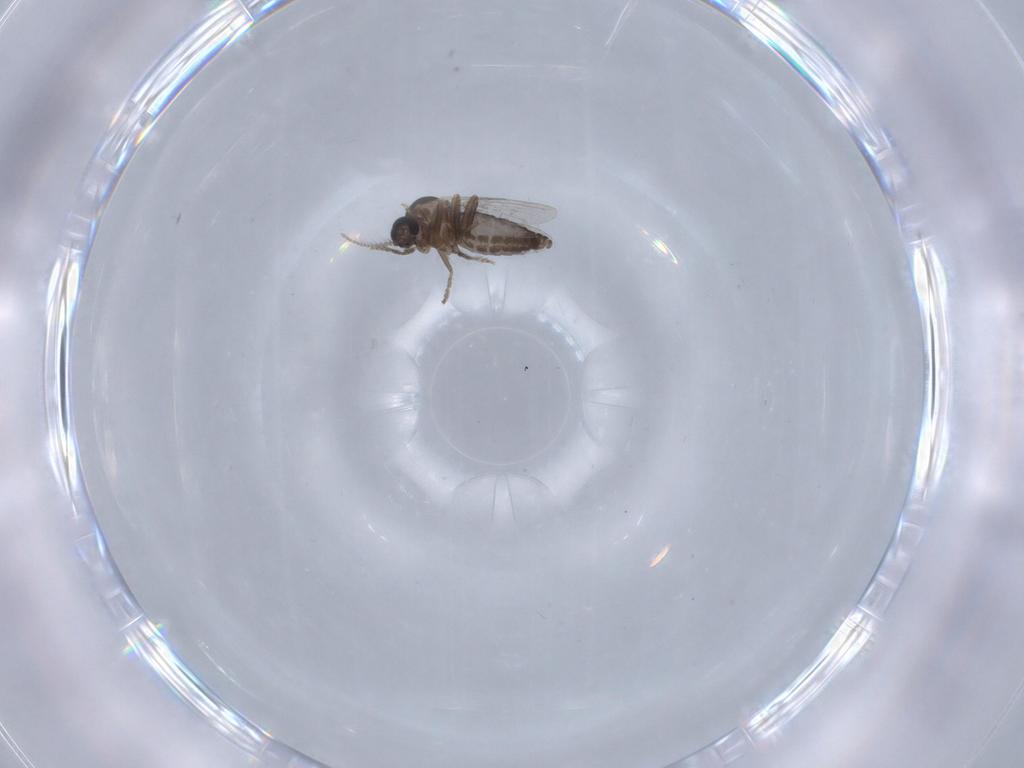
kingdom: Animalia
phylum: Arthropoda
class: Insecta
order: Diptera
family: Ceratopogonidae
